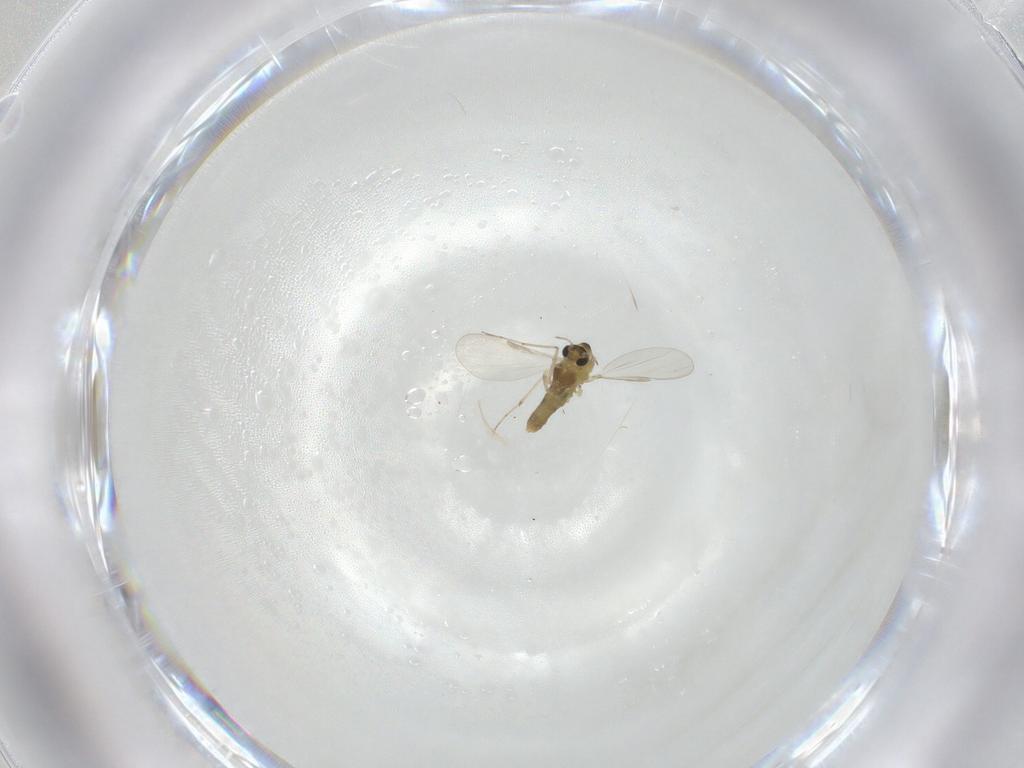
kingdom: Animalia
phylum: Arthropoda
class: Insecta
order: Diptera
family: Chironomidae
